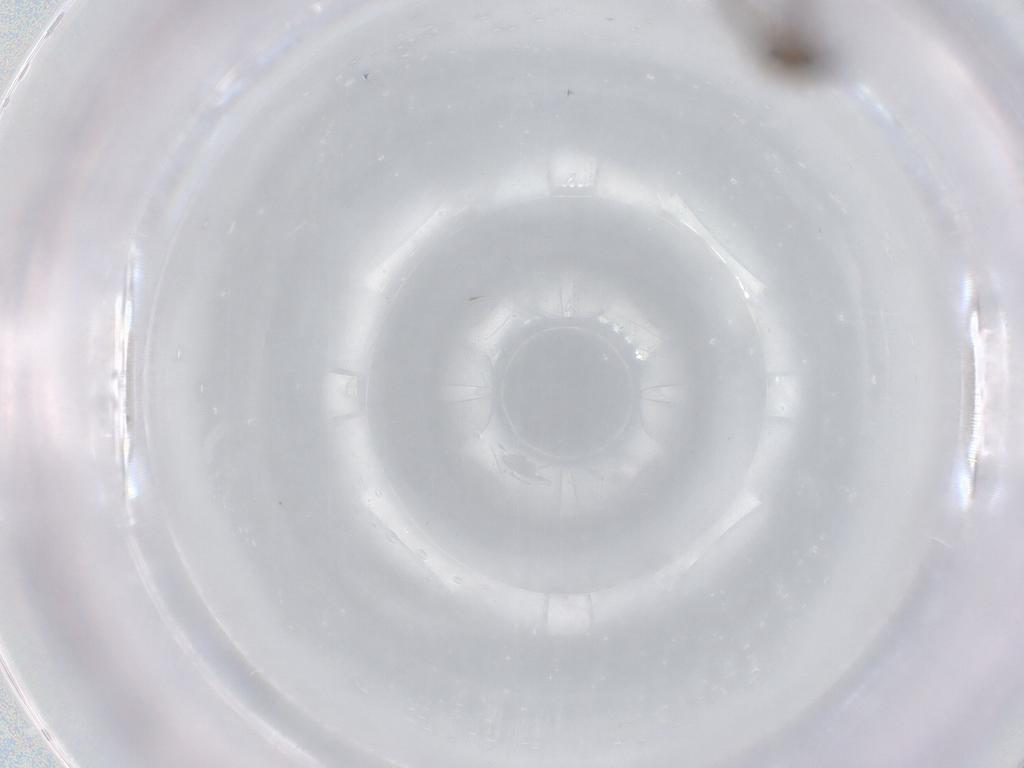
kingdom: Animalia
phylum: Arthropoda
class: Insecta
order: Diptera
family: Cecidomyiidae
